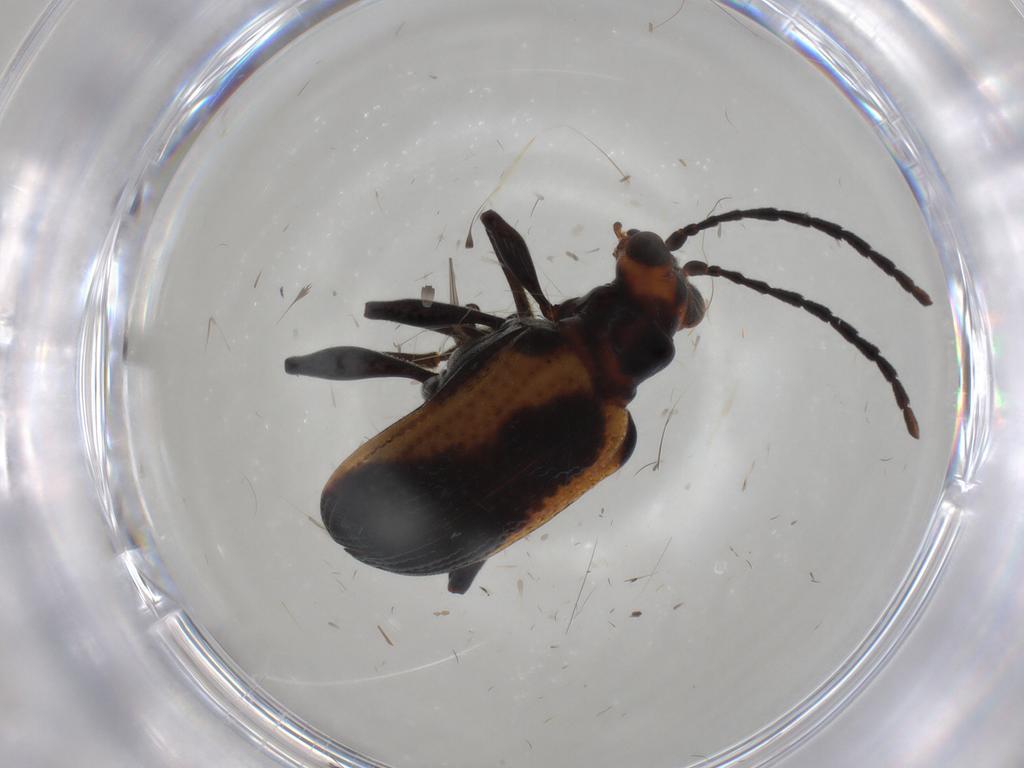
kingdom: Animalia
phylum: Arthropoda
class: Insecta
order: Coleoptera
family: Chrysomelidae
